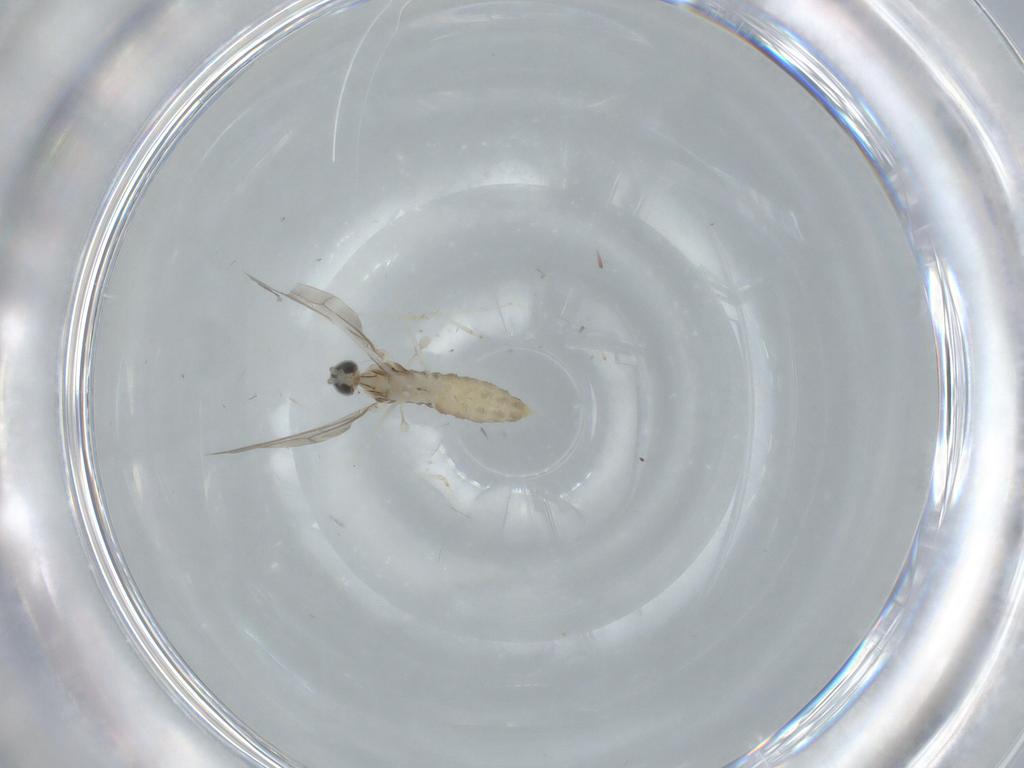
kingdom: Animalia
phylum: Arthropoda
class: Insecta
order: Diptera
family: Cecidomyiidae
